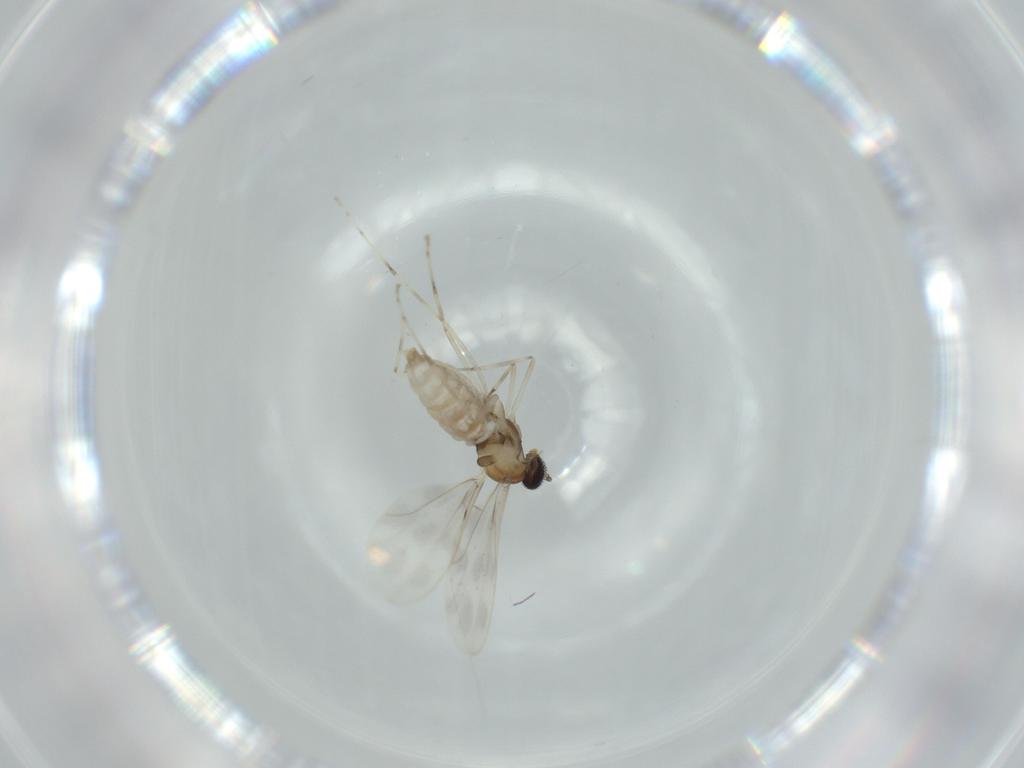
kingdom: Animalia
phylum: Arthropoda
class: Insecta
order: Diptera
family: Cecidomyiidae
